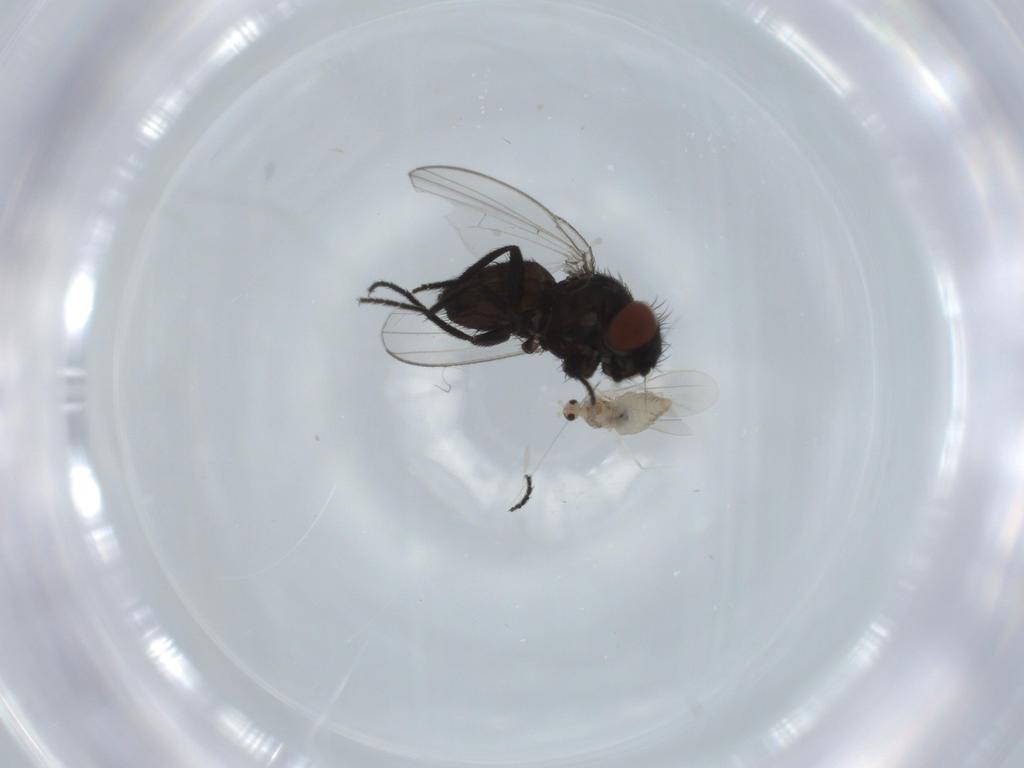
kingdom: Animalia
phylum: Arthropoda
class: Insecta
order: Diptera
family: Cecidomyiidae
